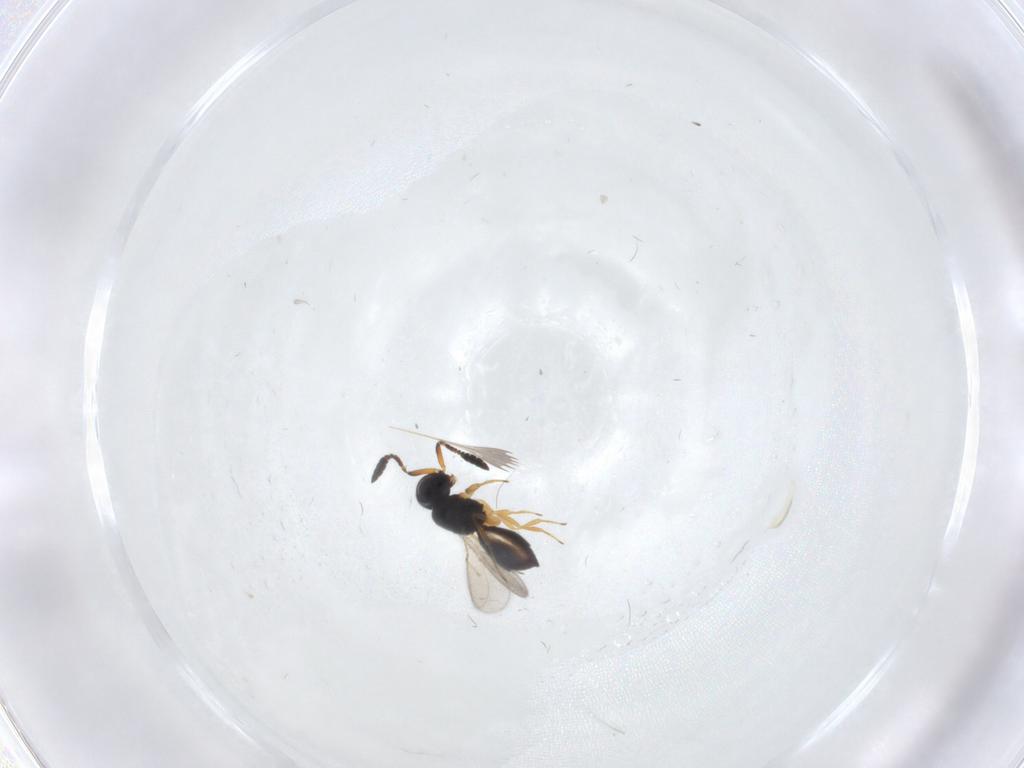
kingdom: Animalia
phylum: Arthropoda
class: Insecta
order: Hymenoptera
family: Scelionidae
